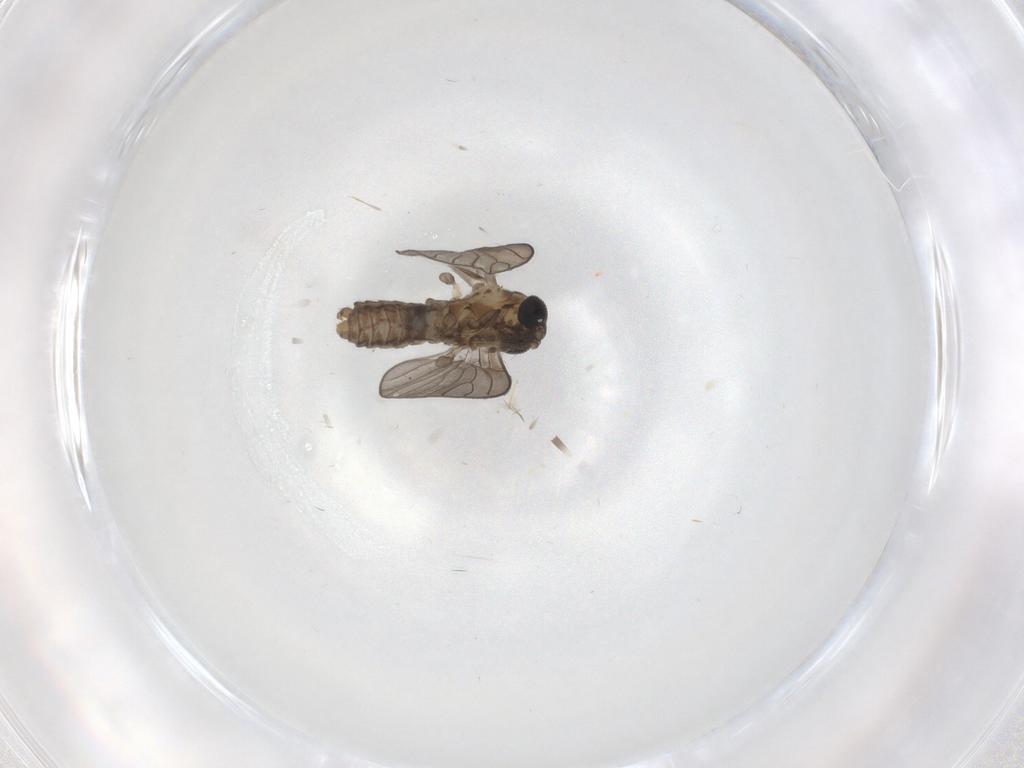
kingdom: Animalia
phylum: Arthropoda
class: Insecta
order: Diptera
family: Psychodidae
